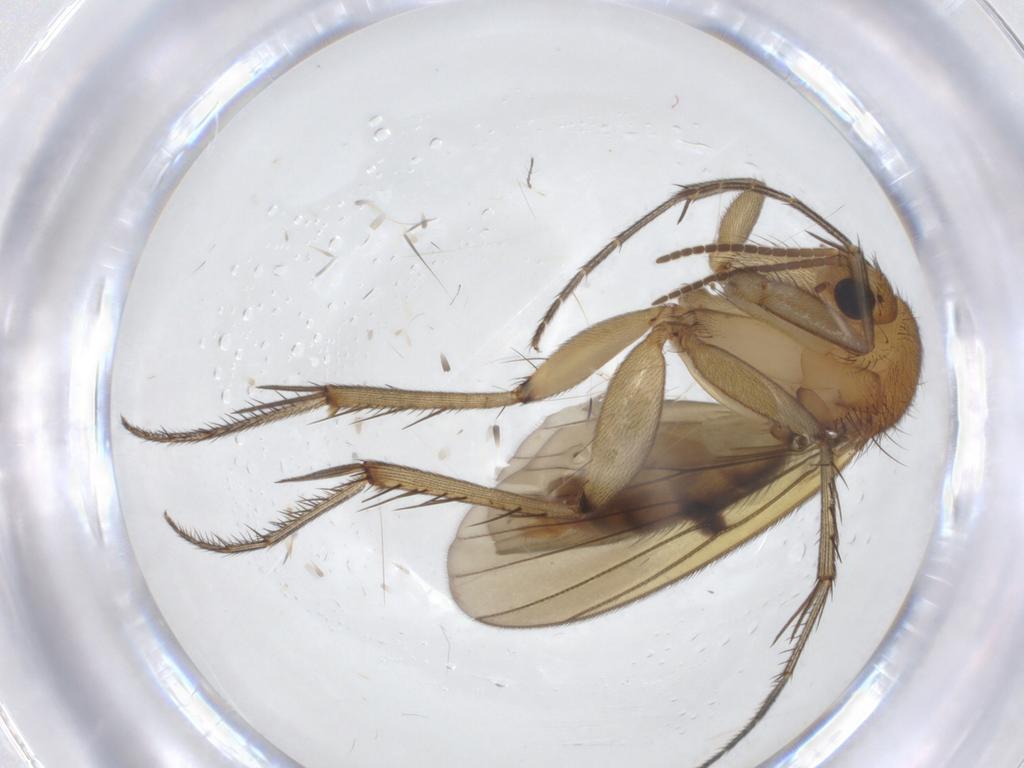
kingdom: Animalia
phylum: Arthropoda
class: Insecta
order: Diptera
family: Mycetophilidae
